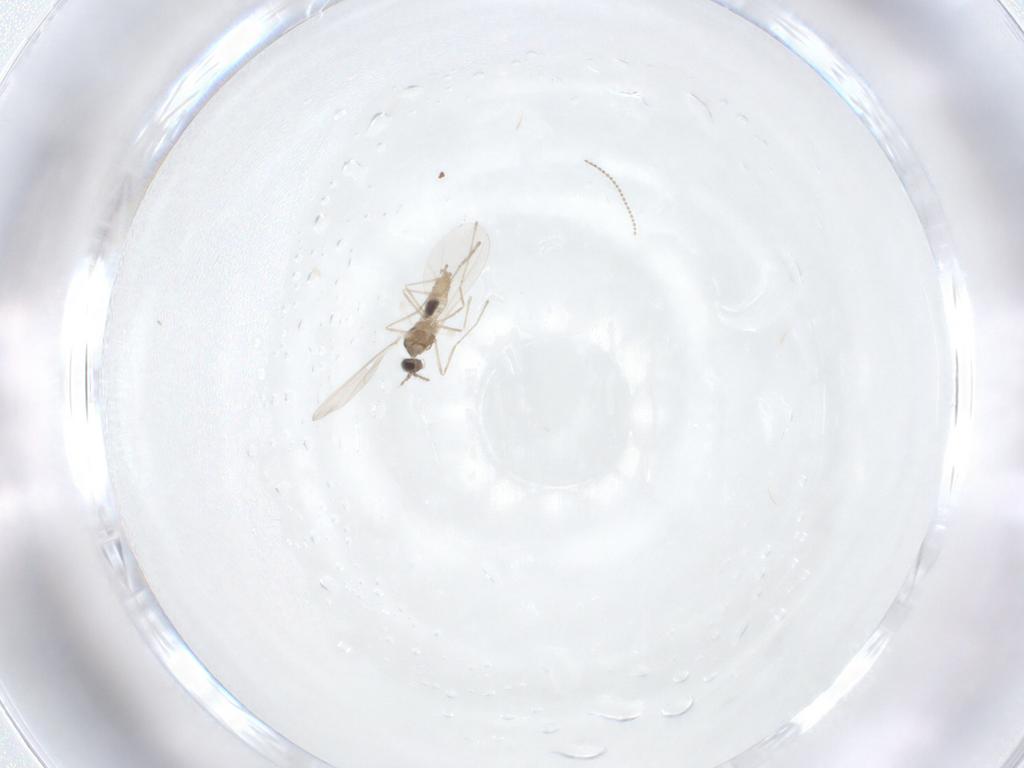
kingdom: Animalia
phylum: Arthropoda
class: Insecta
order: Diptera
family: Cecidomyiidae
